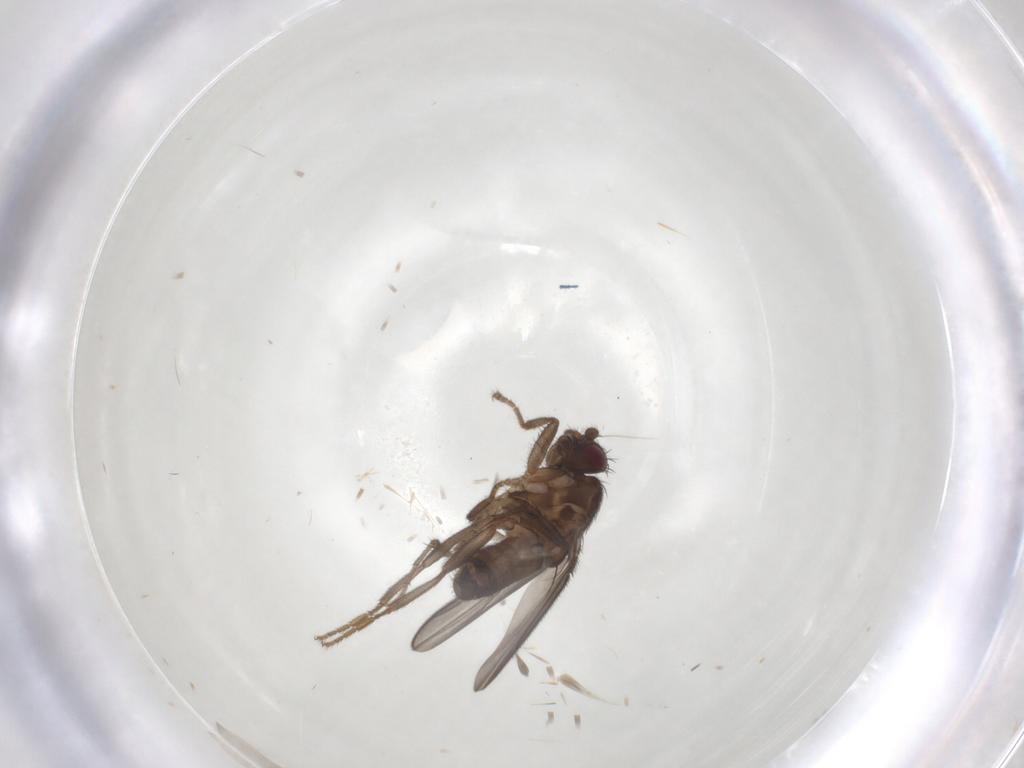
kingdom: Animalia
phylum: Arthropoda
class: Insecta
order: Diptera
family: Sphaeroceridae
